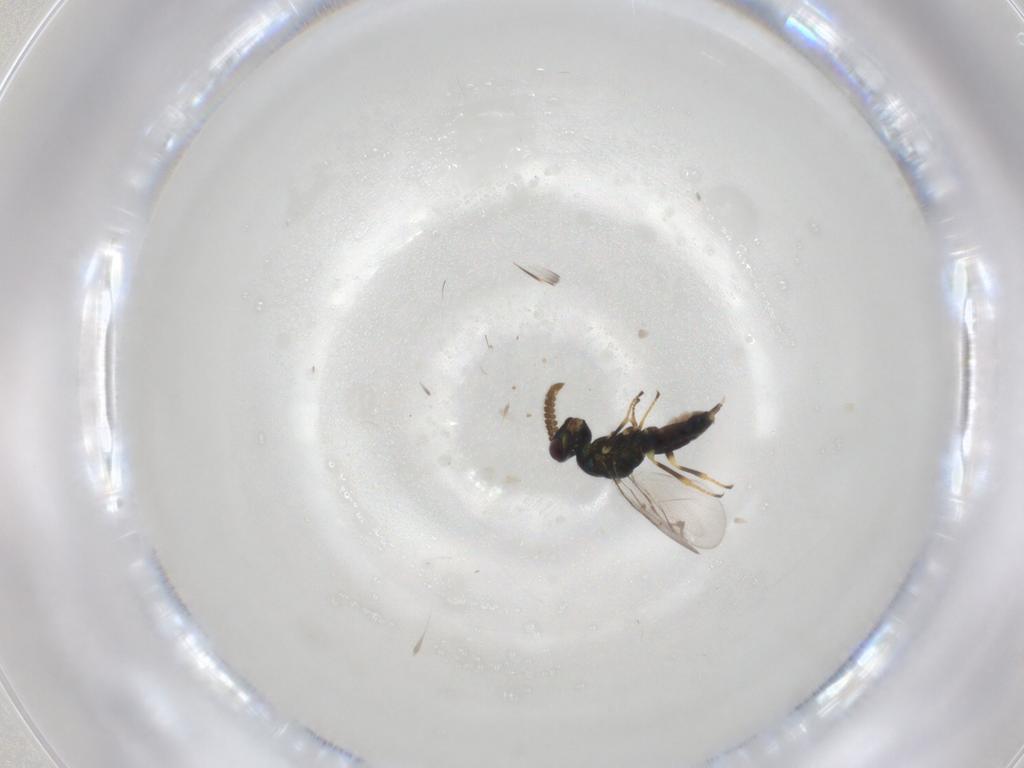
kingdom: Animalia
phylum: Arthropoda
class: Insecta
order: Hymenoptera
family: Pteromalidae
